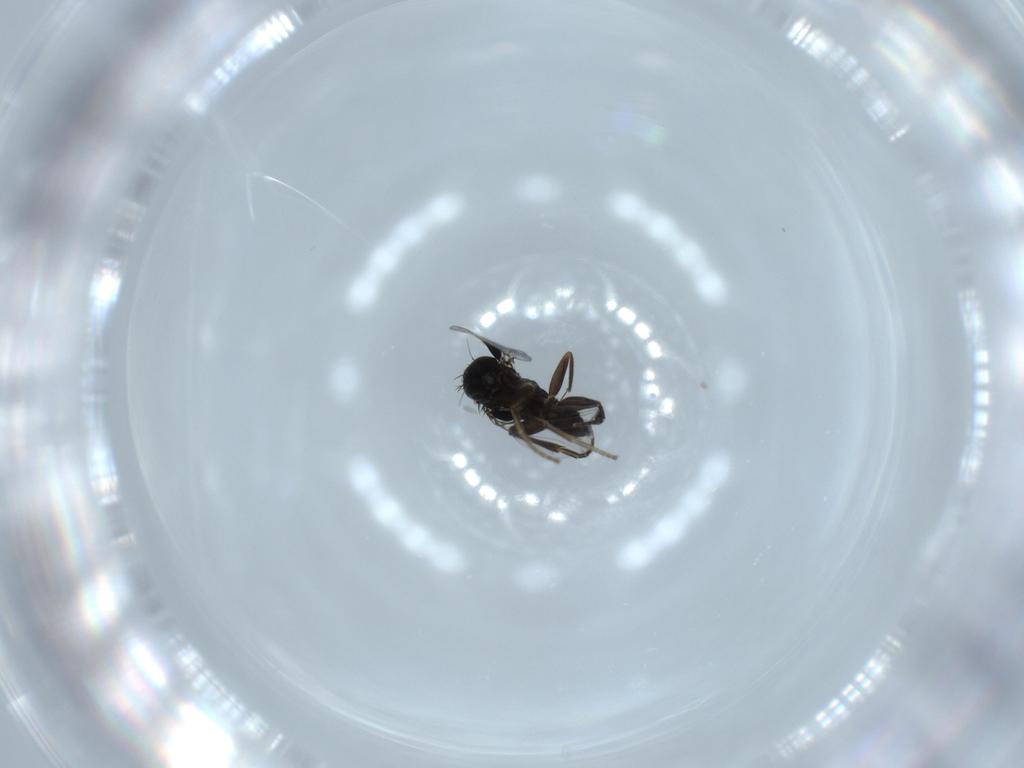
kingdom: Animalia
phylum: Arthropoda
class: Insecta
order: Diptera
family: Phoridae
